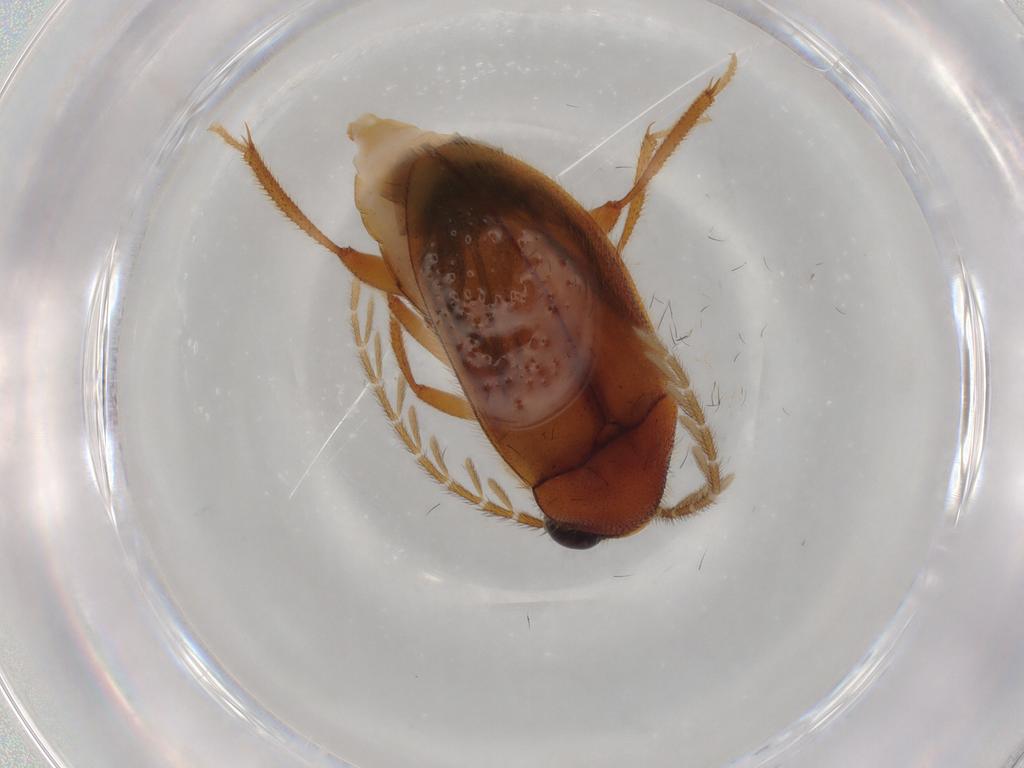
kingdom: Animalia
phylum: Arthropoda
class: Insecta
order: Coleoptera
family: Ptilodactylidae
